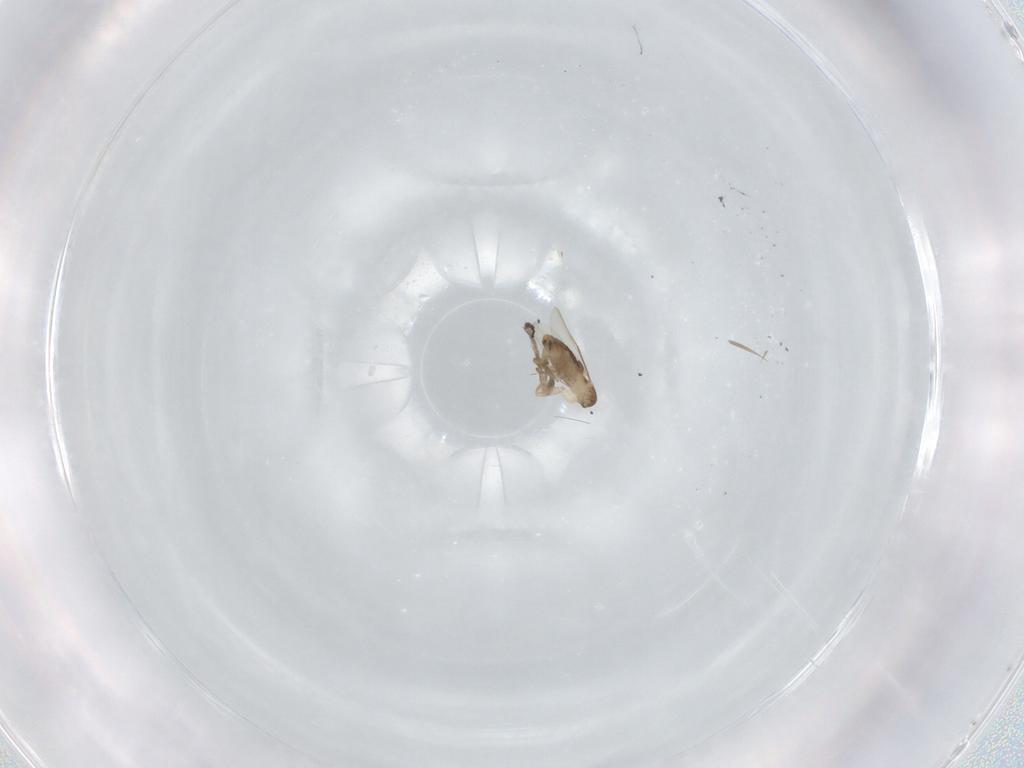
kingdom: Animalia
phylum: Arthropoda
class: Insecta
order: Diptera
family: Phoridae
